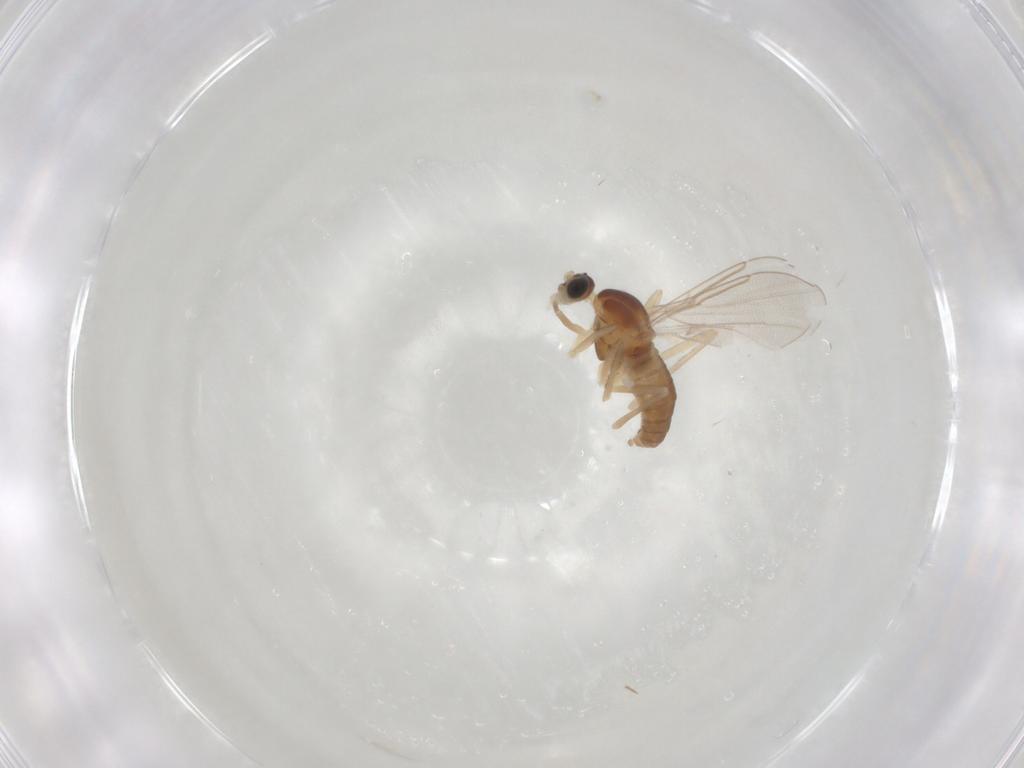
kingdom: Animalia
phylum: Arthropoda
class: Insecta
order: Diptera
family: Cecidomyiidae
